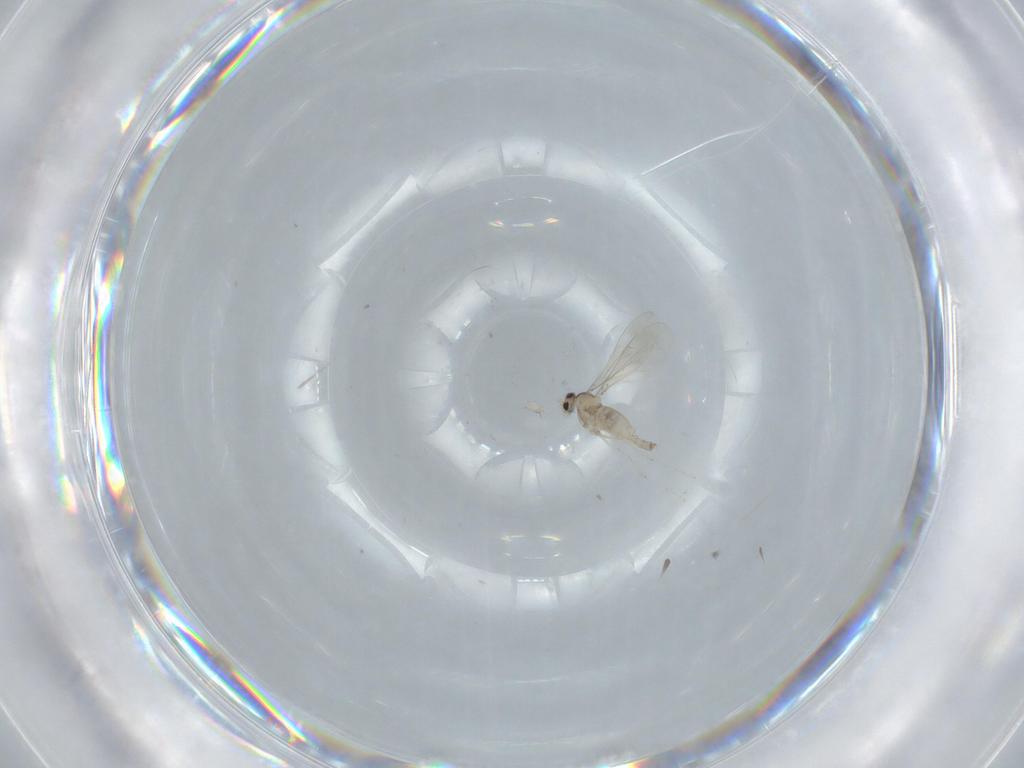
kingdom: Animalia
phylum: Arthropoda
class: Insecta
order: Diptera
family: Cecidomyiidae
